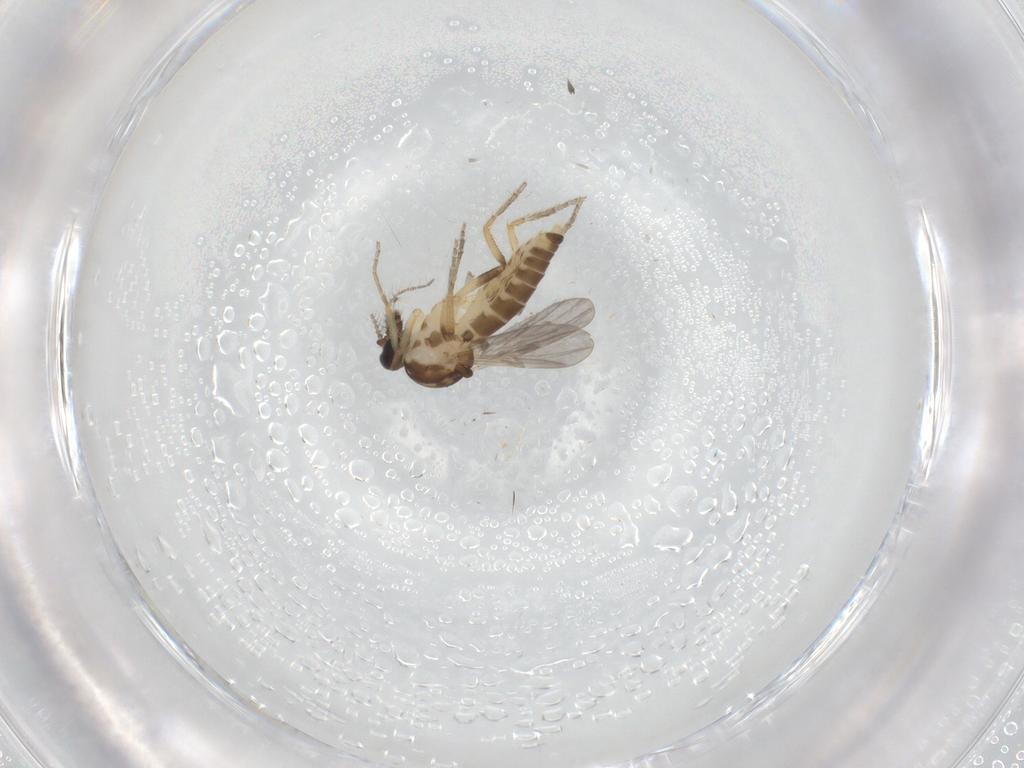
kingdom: Animalia
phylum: Arthropoda
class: Insecta
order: Diptera
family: Ceratopogonidae
